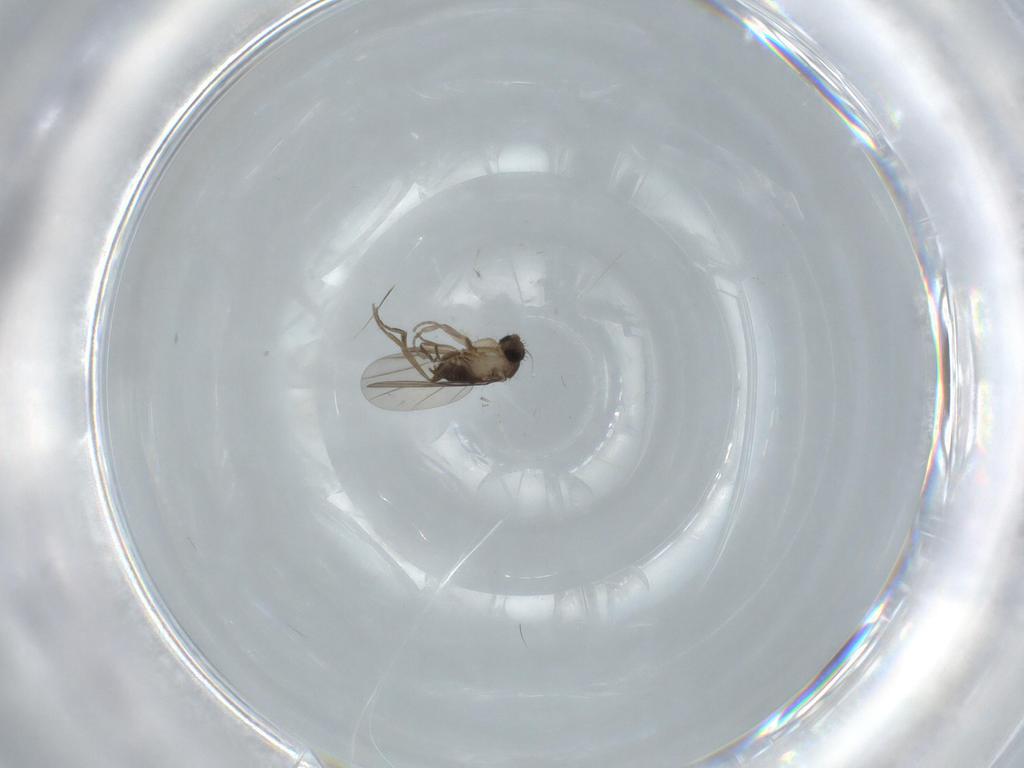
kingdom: Animalia
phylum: Arthropoda
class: Insecta
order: Diptera
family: Phoridae
